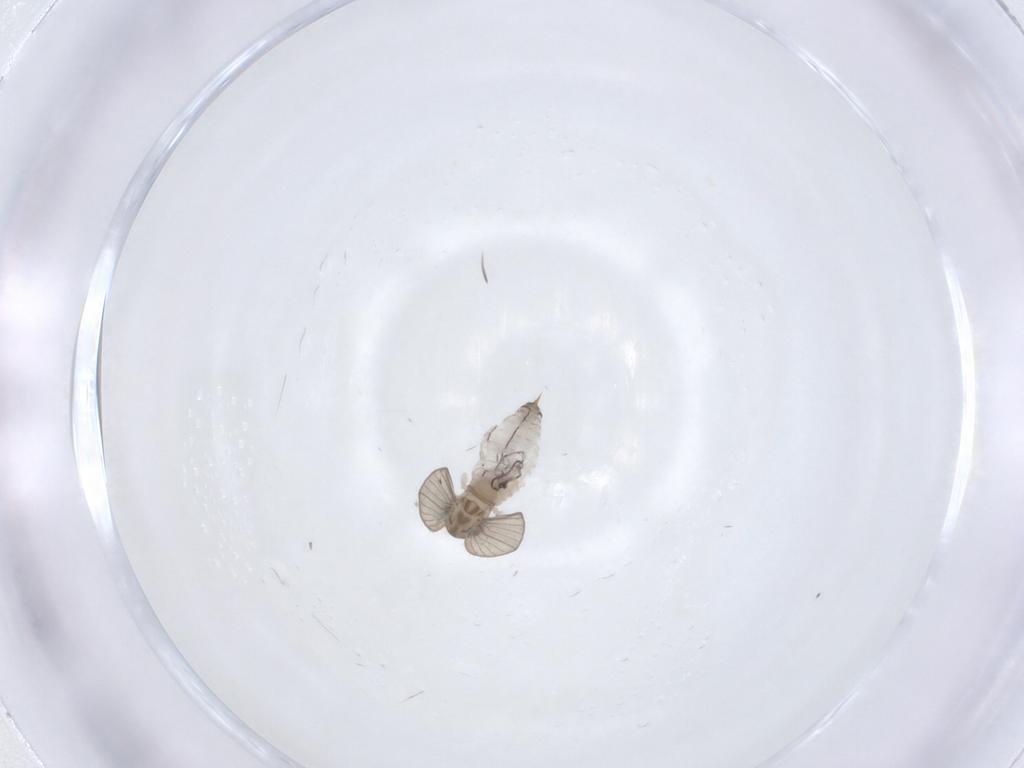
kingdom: Animalia
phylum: Arthropoda
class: Insecta
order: Diptera
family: Psychodidae
